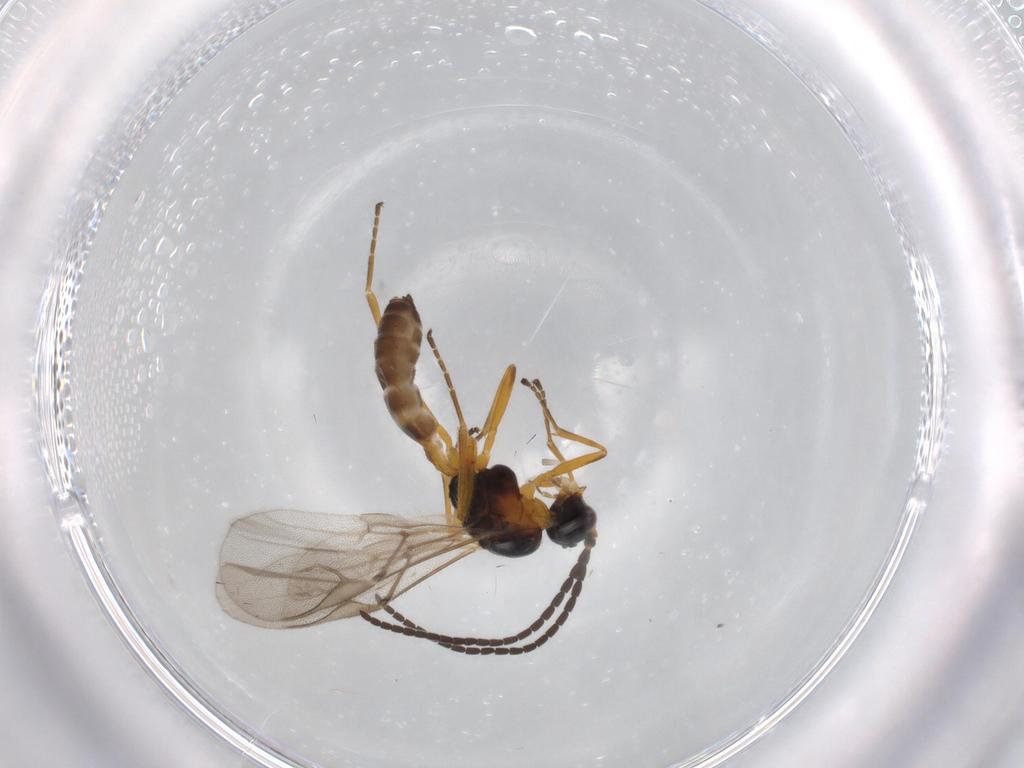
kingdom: Animalia
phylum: Arthropoda
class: Insecta
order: Hymenoptera
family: Braconidae
